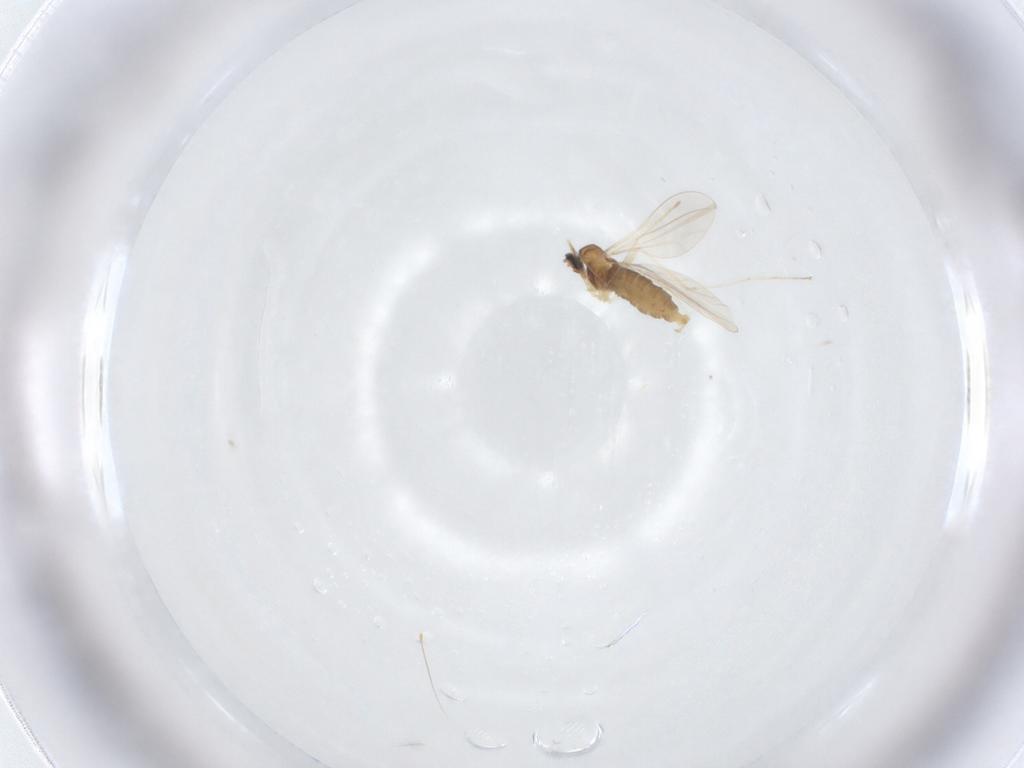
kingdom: Animalia
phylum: Arthropoda
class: Insecta
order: Diptera
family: Cecidomyiidae
